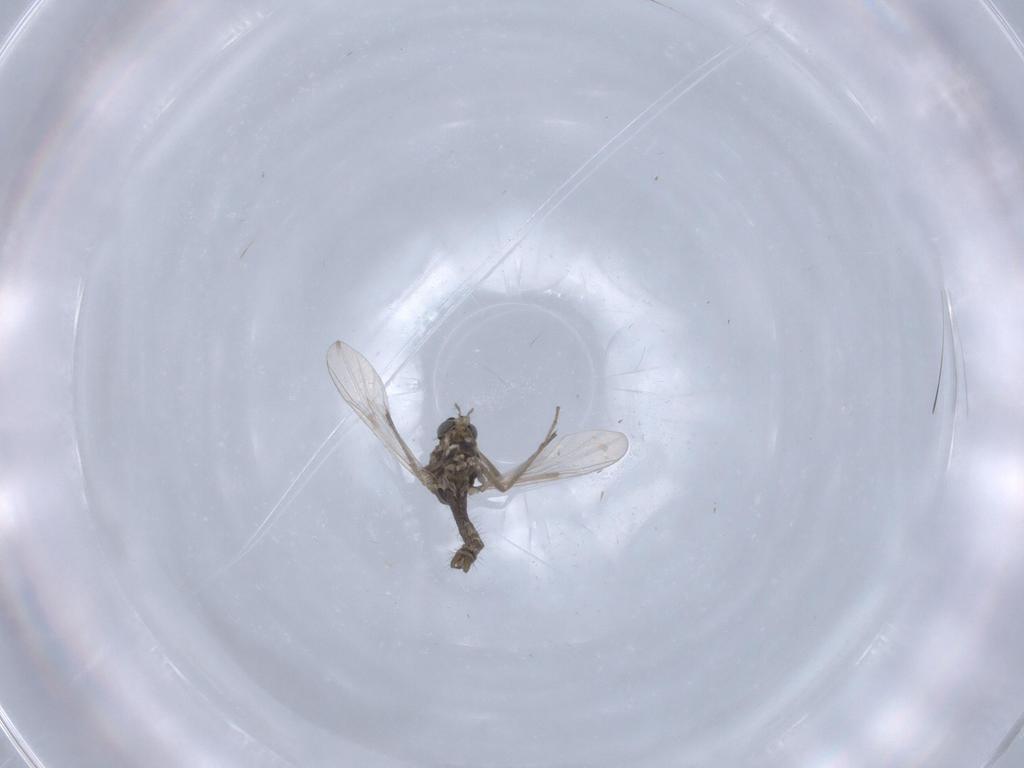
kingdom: Animalia
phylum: Arthropoda
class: Insecta
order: Diptera
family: Chironomidae
